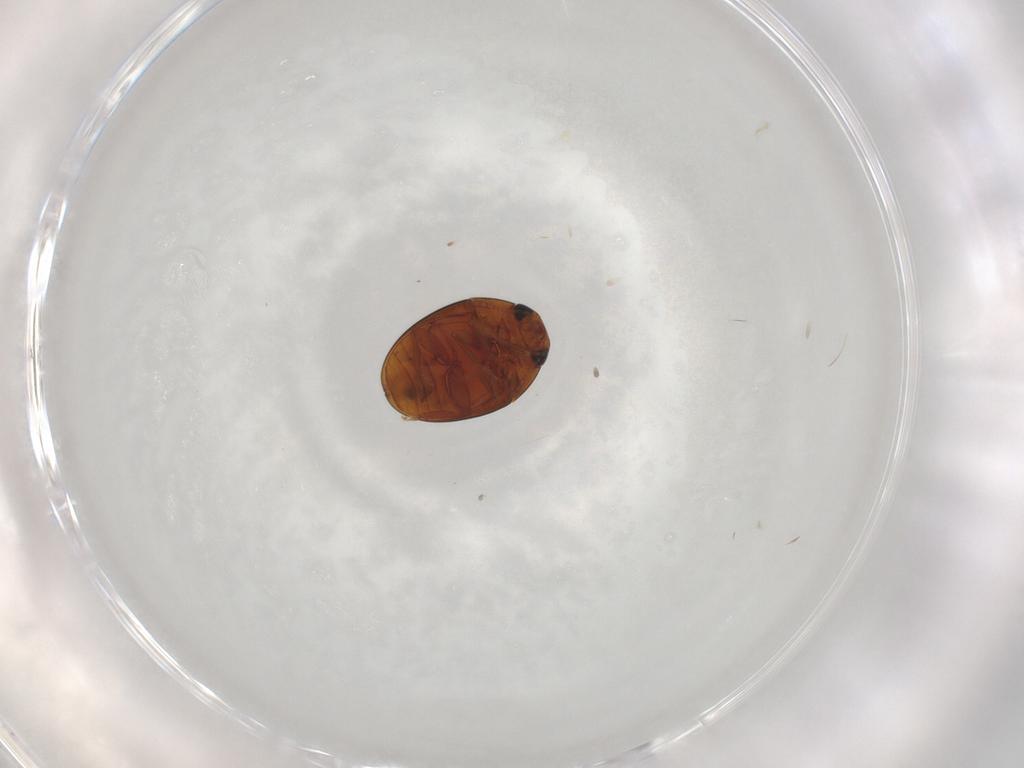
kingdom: Animalia
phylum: Arthropoda
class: Insecta
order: Coleoptera
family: Phalacridae
